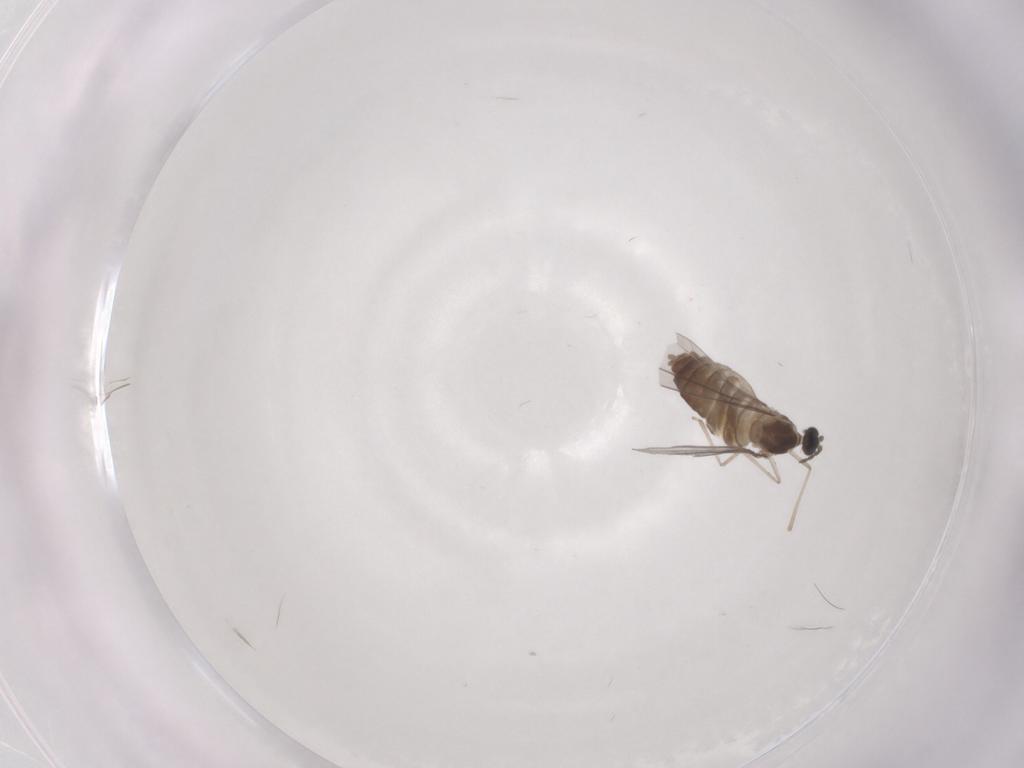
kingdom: Animalia
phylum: Arthropoda
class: Insecta
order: Diptera
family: Cecidomyiidae
